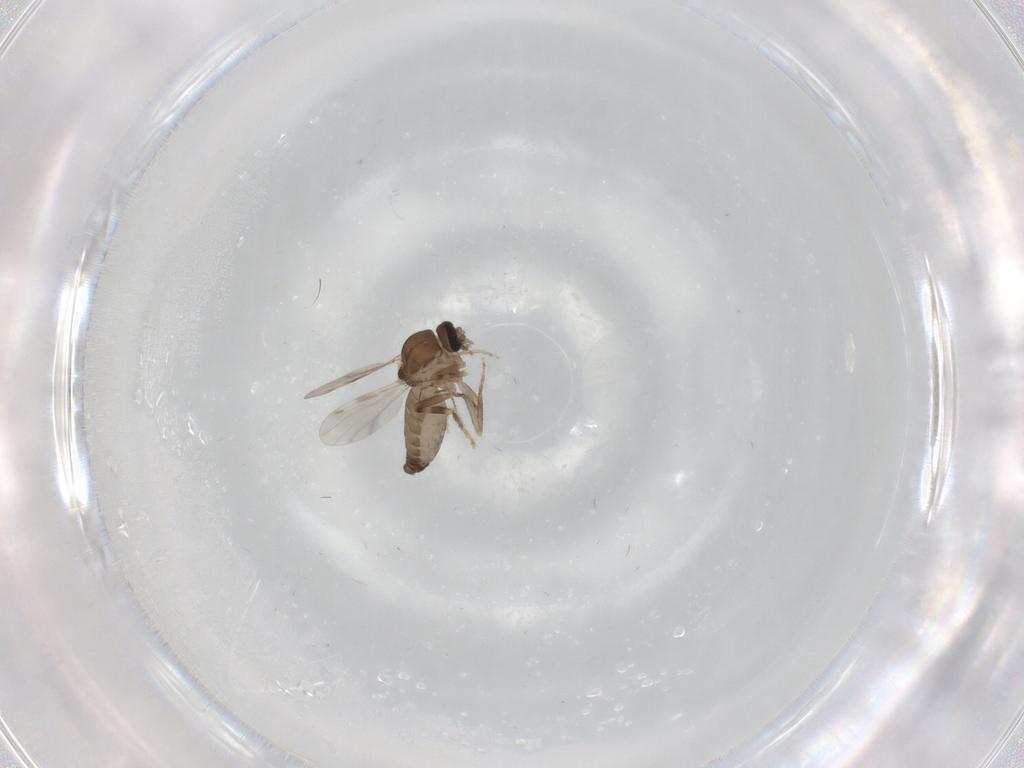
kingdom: Animalia
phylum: Arthropoda
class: Insecta
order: Diptera
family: Ceratopogonidae
